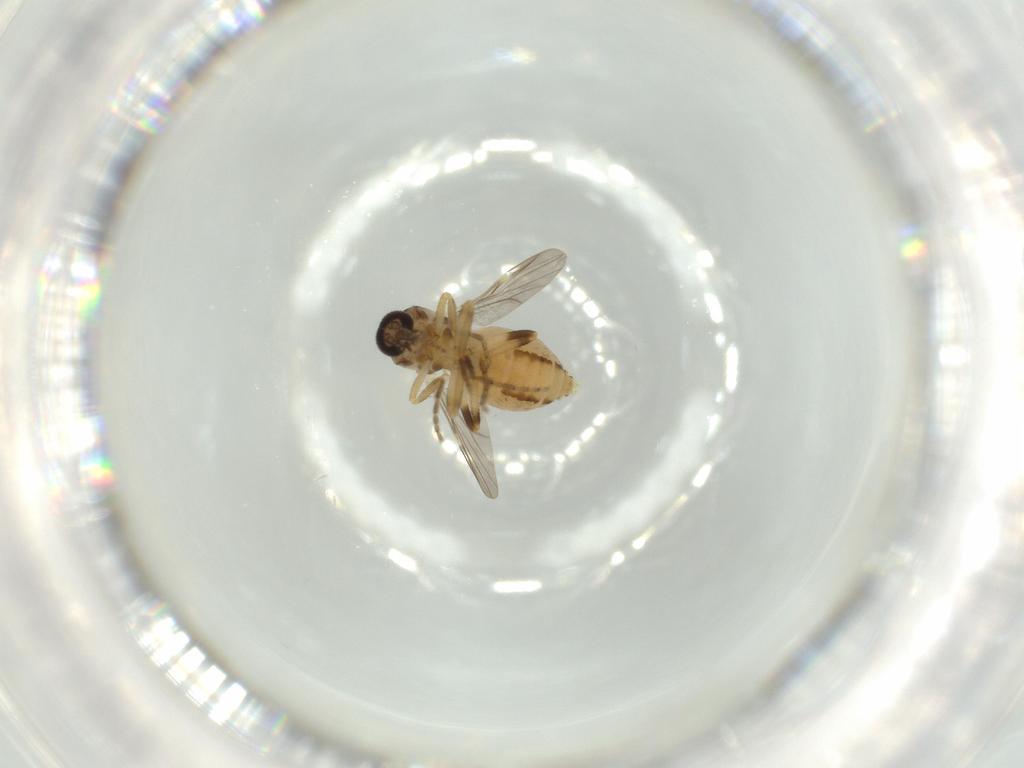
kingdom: Animalia
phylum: Arthropoda
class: Insecta
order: Diptera
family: Ceratopogonidae
